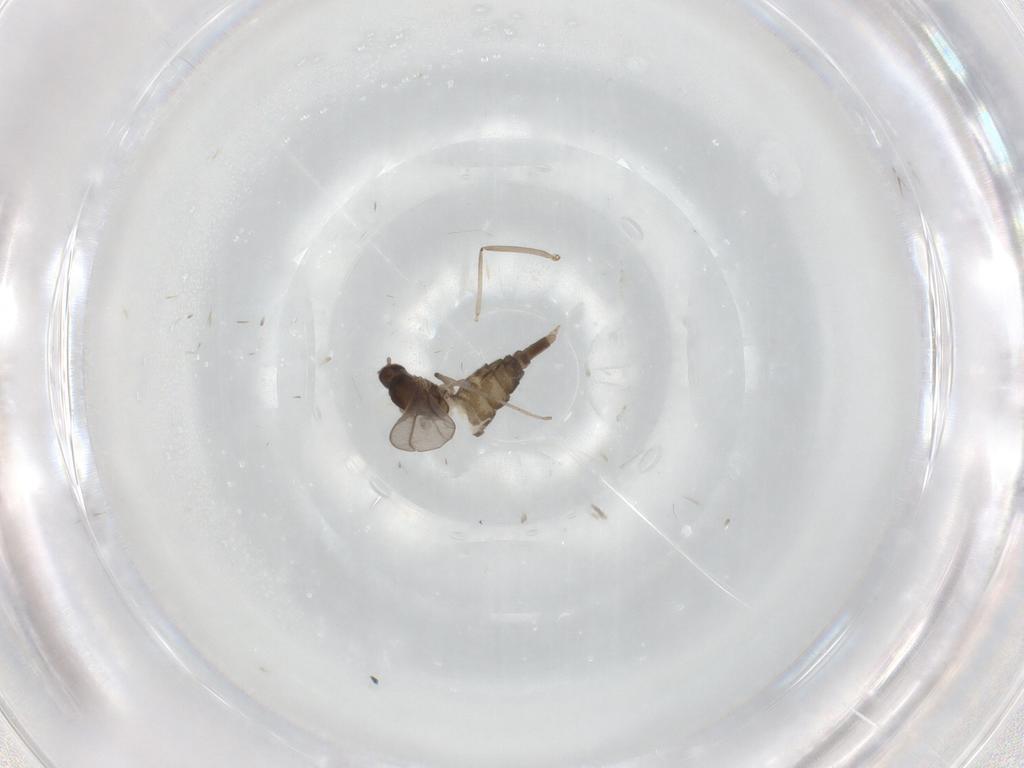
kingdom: Animalia
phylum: Arthropoda
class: Insecta
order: Diptera
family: Cecidomyiidae
